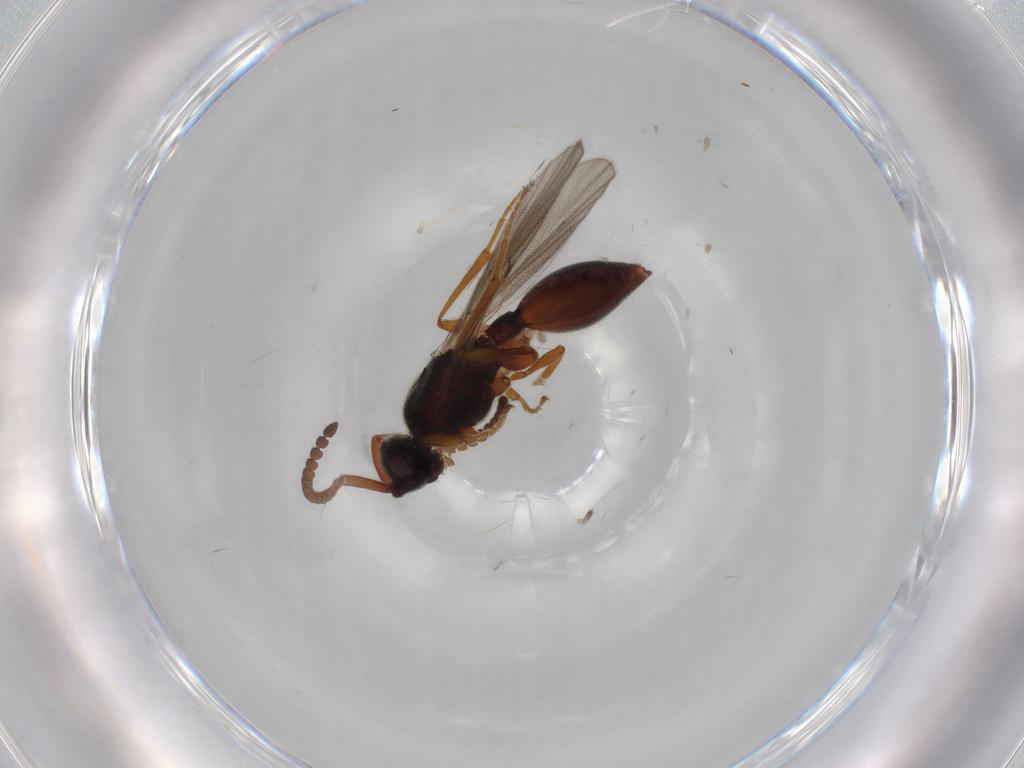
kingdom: Animalia
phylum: Arthropoda
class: Insecta
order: Hymenoptera
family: Diapriidae
